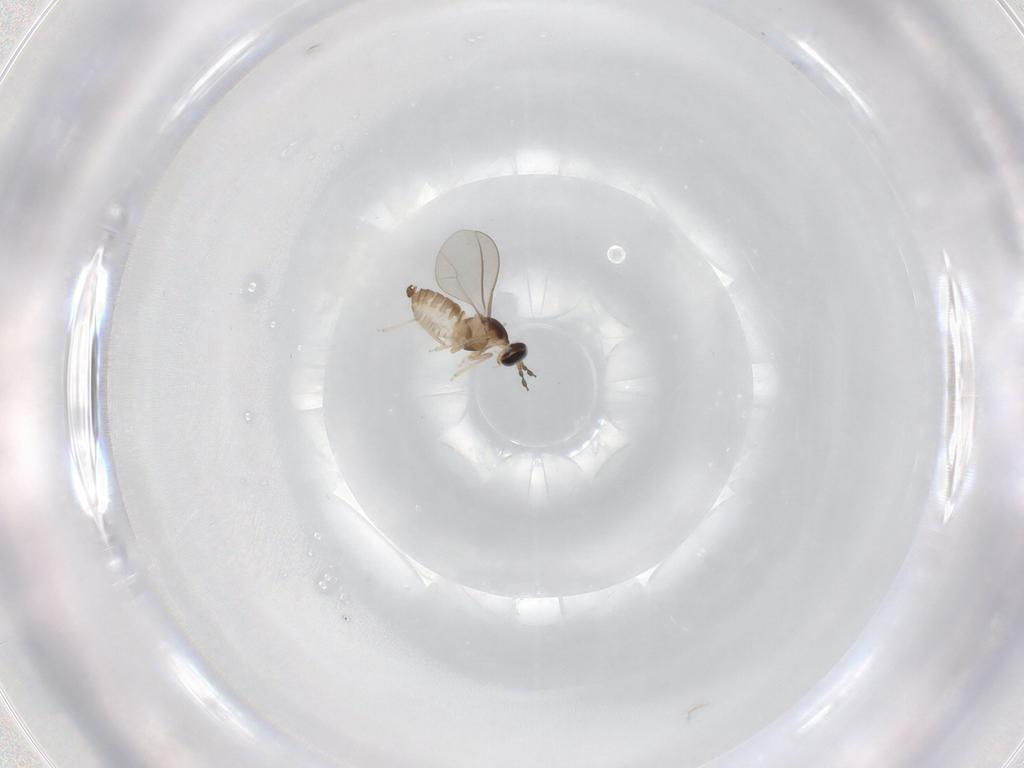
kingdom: Animalia
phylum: Arthropoda
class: Insecta
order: Diptera
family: Cecidomyiidae
